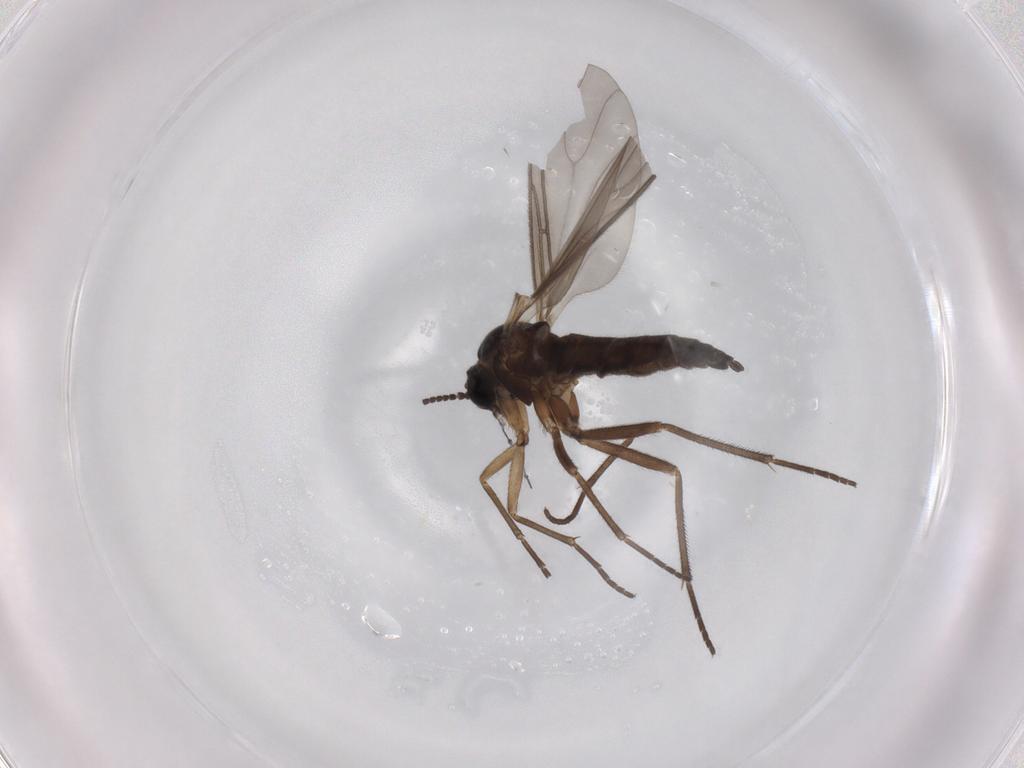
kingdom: Animalia
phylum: Arthropoda
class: Insecta
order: Diptera
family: Sciaridae
